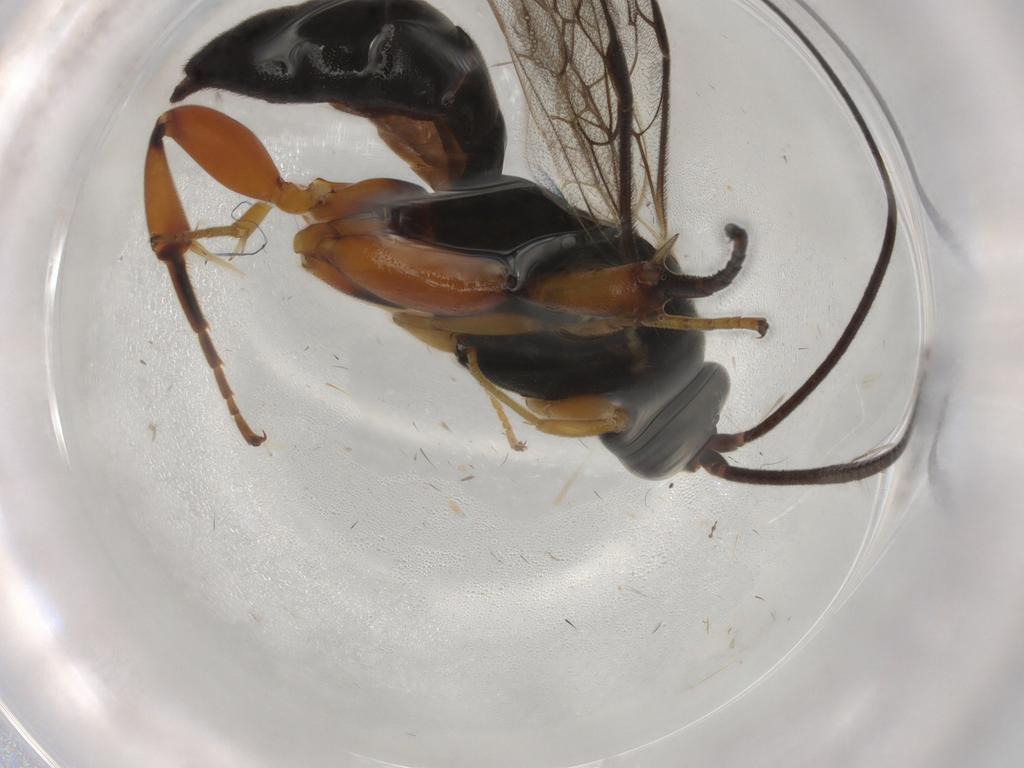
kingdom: Animalia
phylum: Arthropoda
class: Insecta
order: Hymenoptera
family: Ichneumonidae
